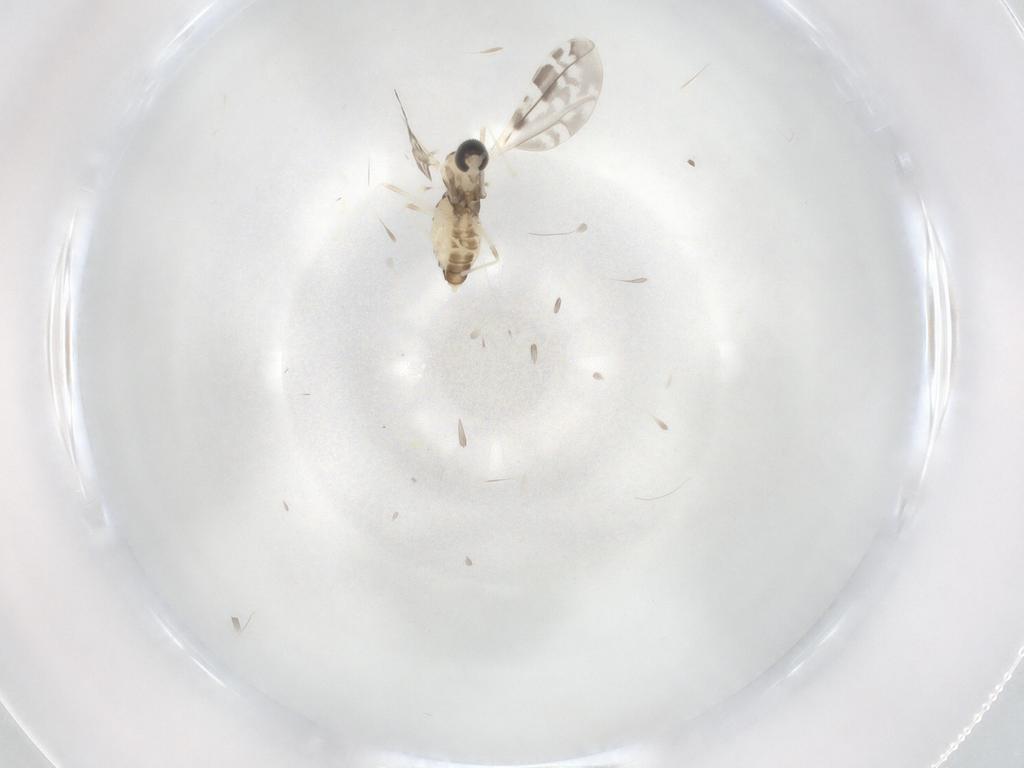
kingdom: Animalia
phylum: Arthropoda
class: Insecta
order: Diptera
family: Cecidomyiidae
